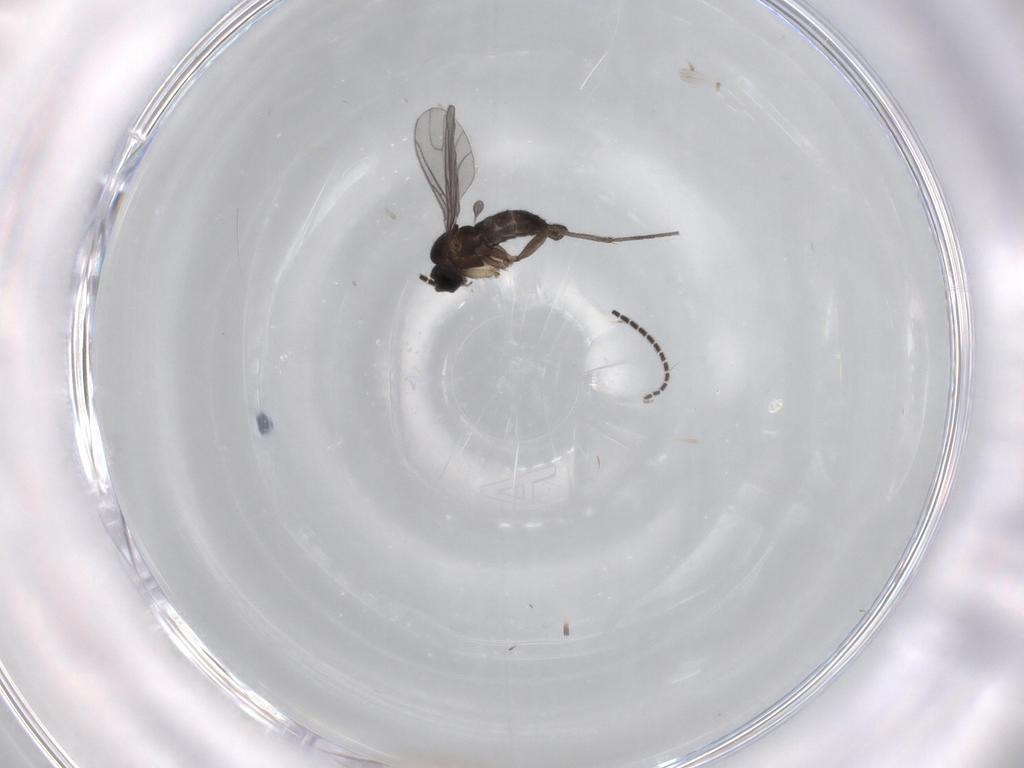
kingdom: Animalia
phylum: Arthropoda
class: Insecta
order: Diptera
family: Sciaridae
